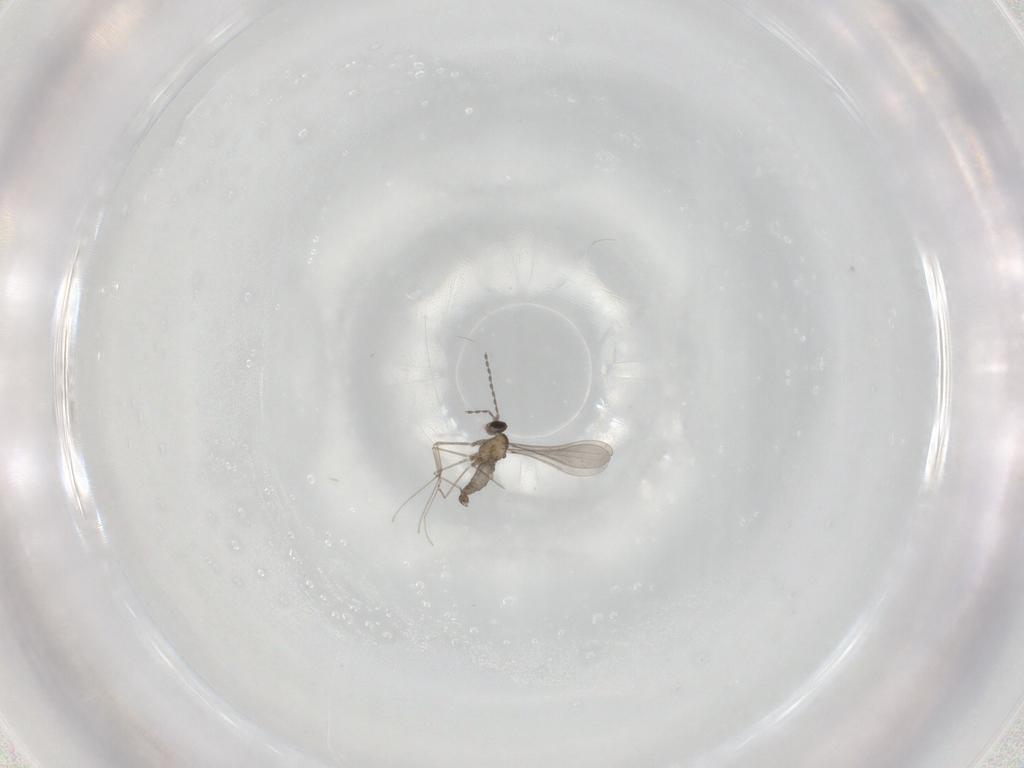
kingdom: Animalia
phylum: Arthropoda
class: Insecta
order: Diptera
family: Cecidomyiidae
